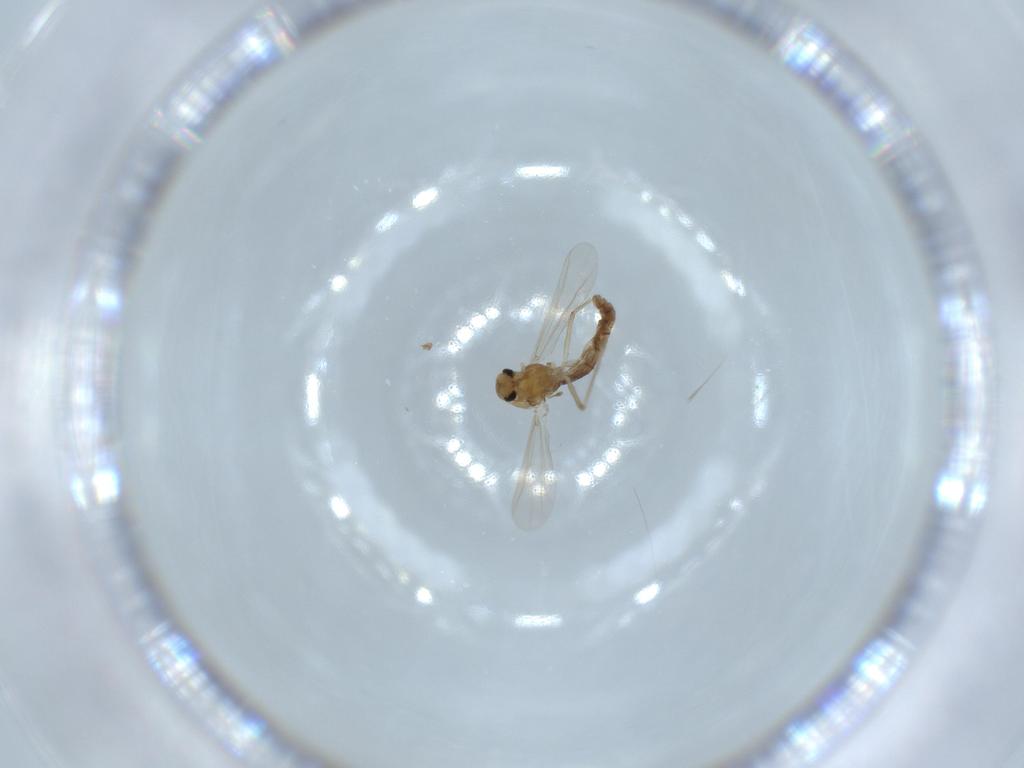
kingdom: Animalia
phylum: Arthropoda
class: Insecta
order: Diptera
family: Chironomidae
